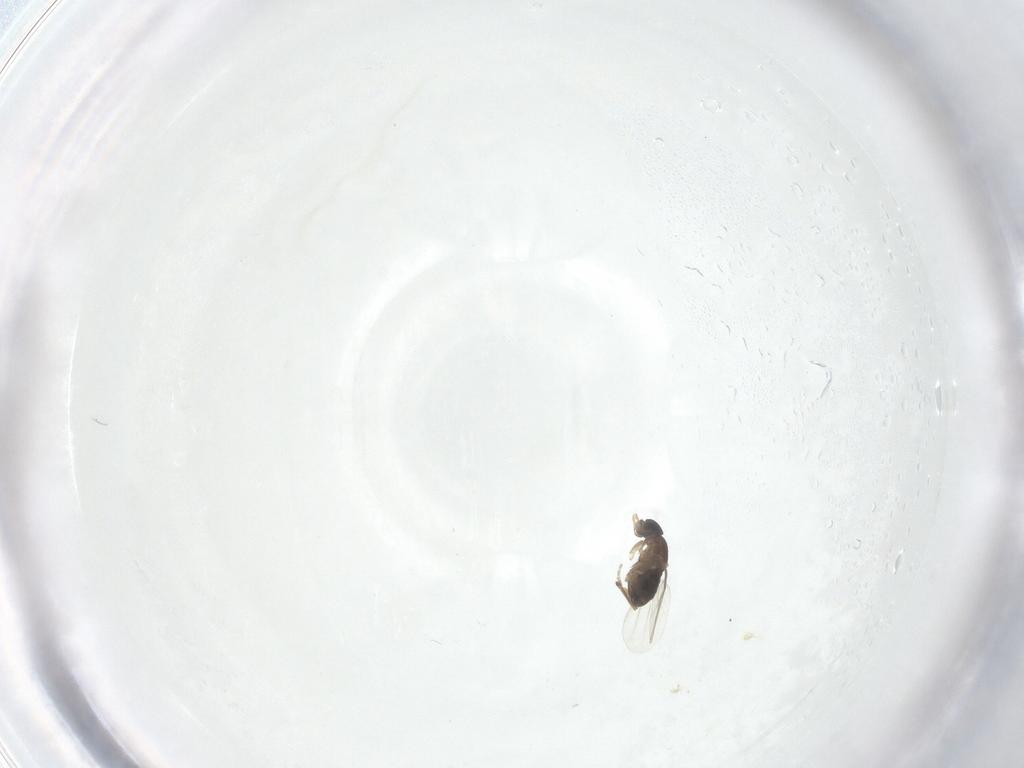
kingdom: Animalia
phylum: Arthropoda
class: Insecta
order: Diptera
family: Phoridae
